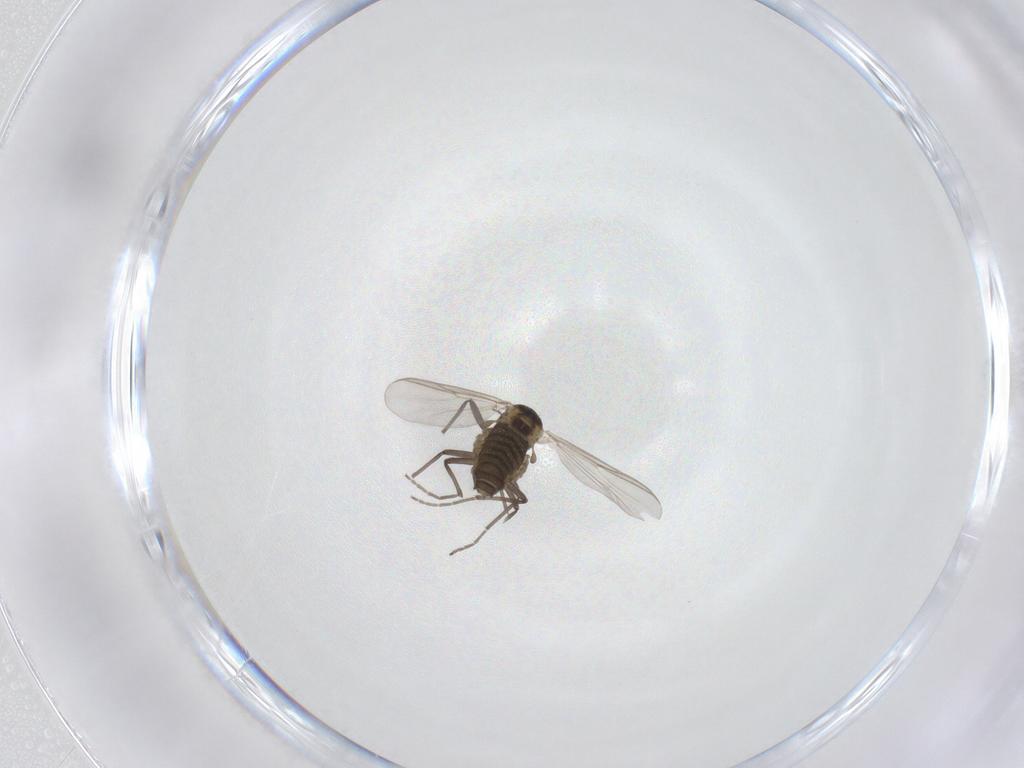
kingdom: Animalia
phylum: Arthropoda
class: Insecta
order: Diptera
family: Chironomidae
